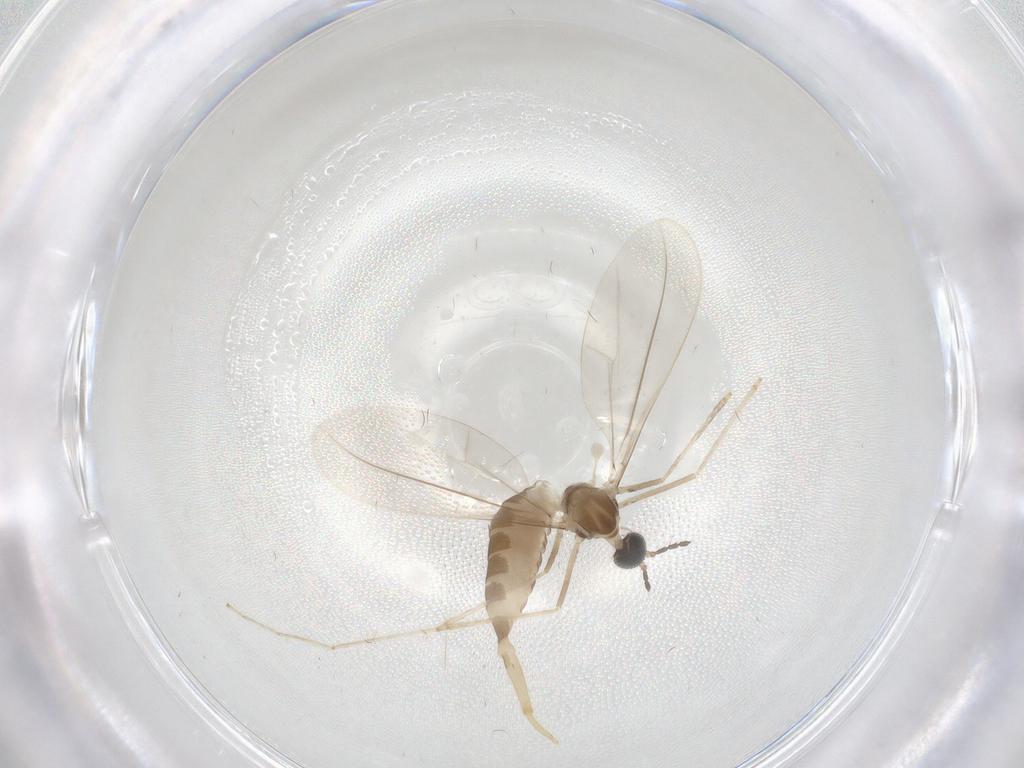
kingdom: Animalia
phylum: Arthropoda
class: Insecta
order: Diptera
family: Cecidomyiidae
